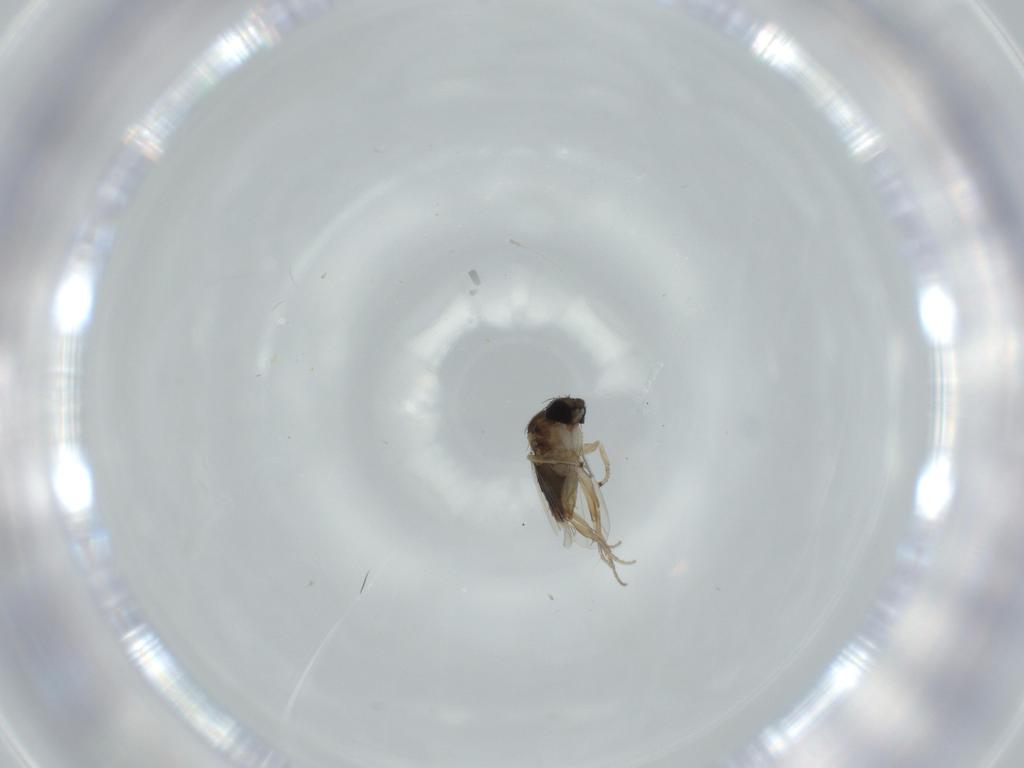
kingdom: Animalia
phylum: Arthropoda
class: Insecta
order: Diptera
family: Phoridae
